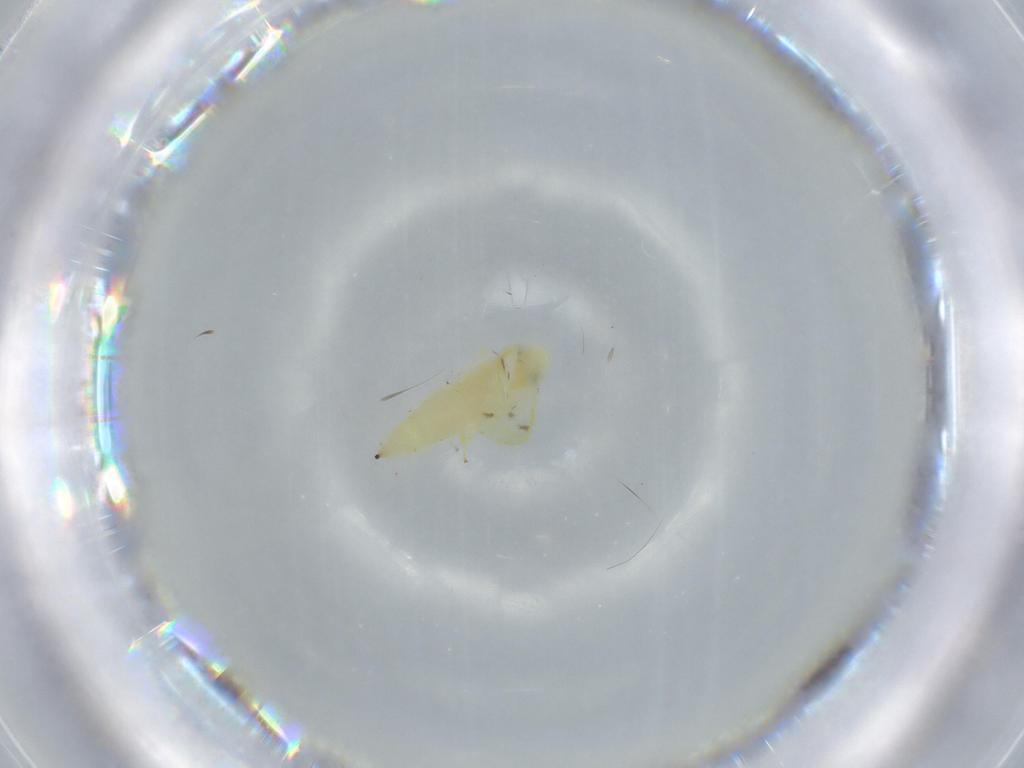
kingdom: Animalia
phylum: Arthropoda
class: Insecta
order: Hemiptera
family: Cicadellidae
